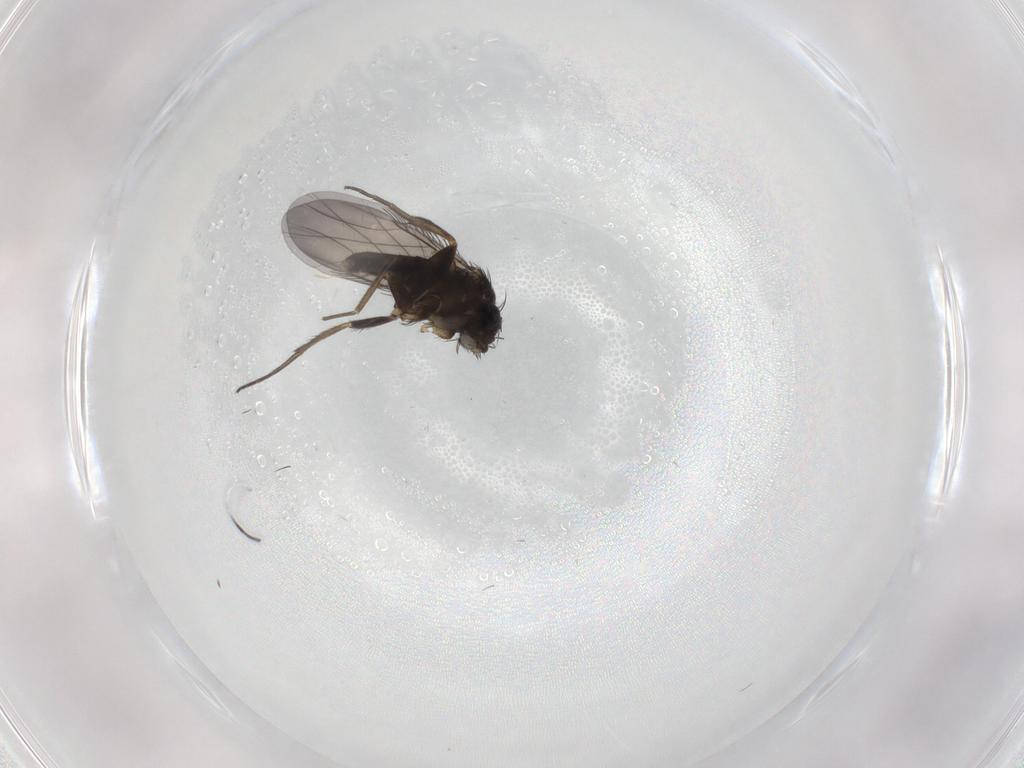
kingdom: Animalia
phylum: Arthropoda
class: Insecta
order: Diptera
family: Phoridae
